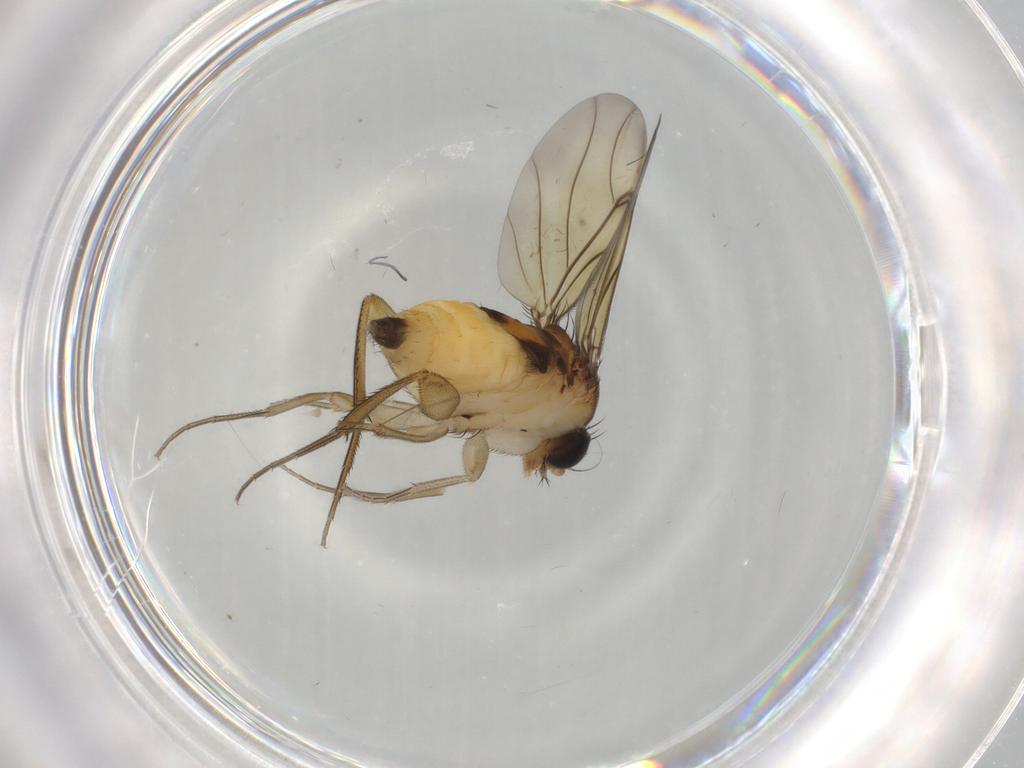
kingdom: Animalia
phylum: Arthropoda
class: Insecta
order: Diptera
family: Chironomidae
